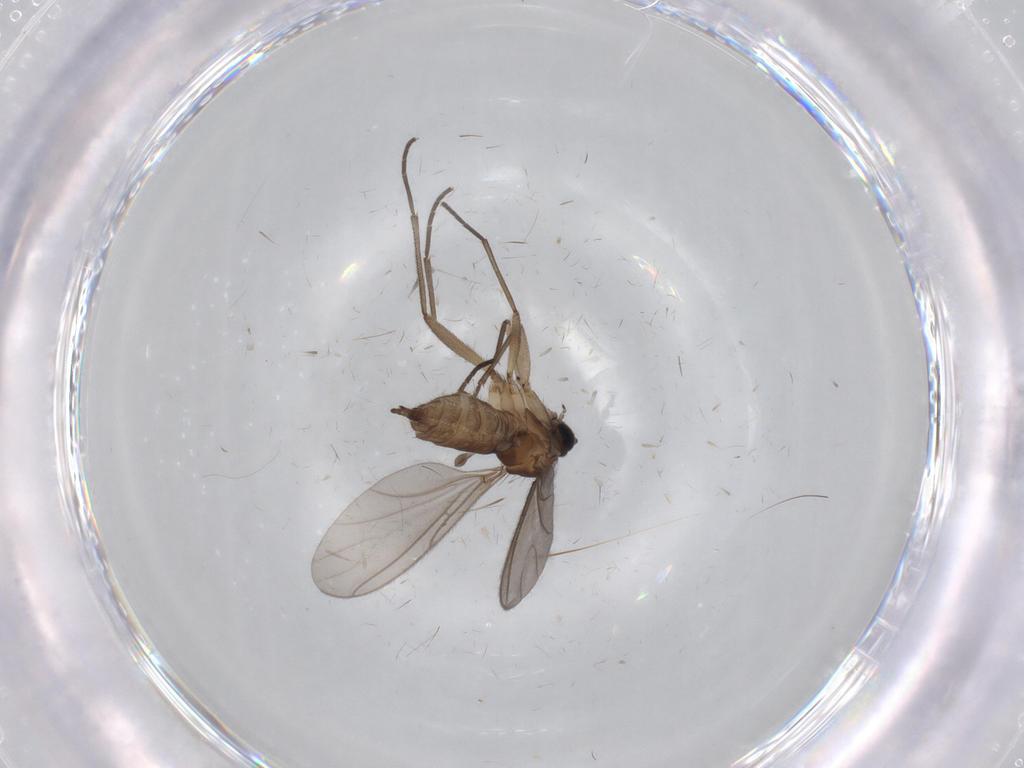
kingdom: Animalia
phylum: Arthropoda
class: Insecta
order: Diptera
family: Sciaridae
